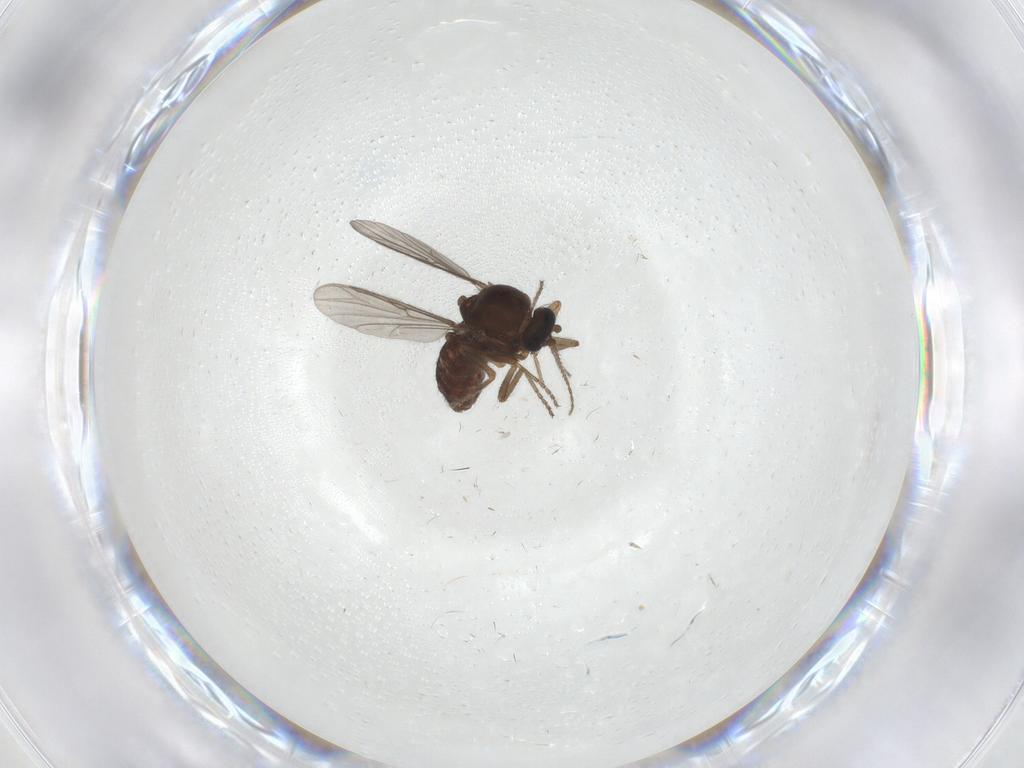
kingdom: Animalia
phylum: Arthropoda
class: Insecta
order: Diptera
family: Ceratopogonidae
